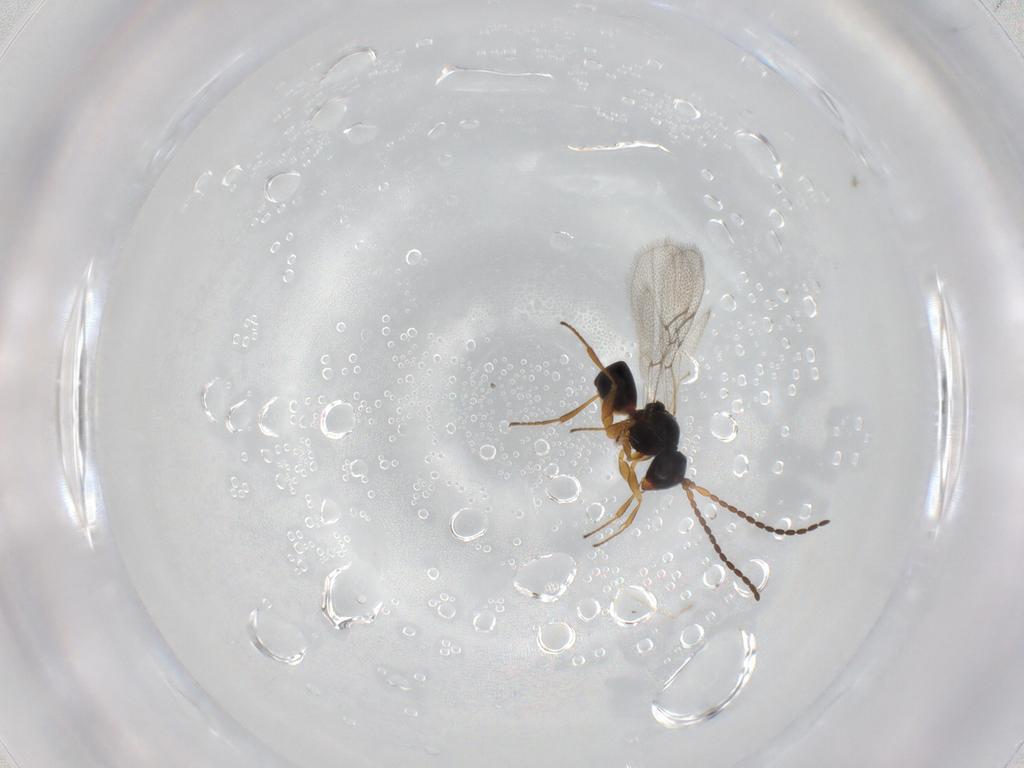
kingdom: Animalia
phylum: Arthropoda
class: Insecta
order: Hymenoptera
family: Figitidae
